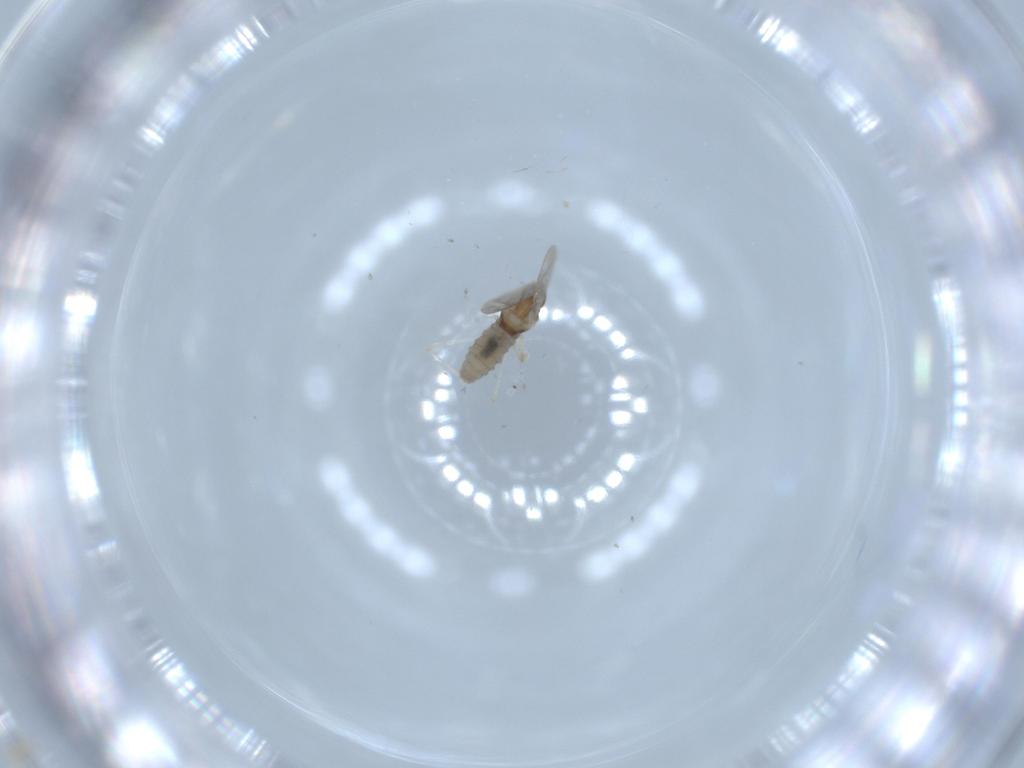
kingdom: Animalia
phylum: Arthropoda
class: Insecta
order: Diptera
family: Cecidomyiidae
